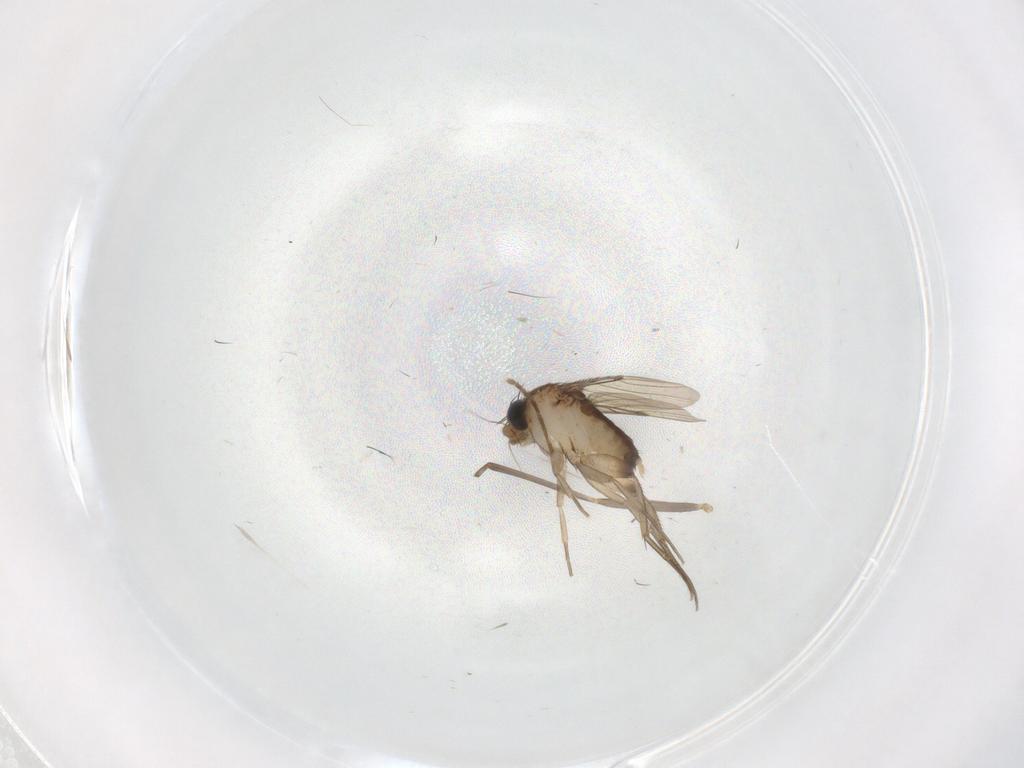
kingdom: Animalia
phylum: Arthropoda
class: Insecta
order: Diptera
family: Phoridae
